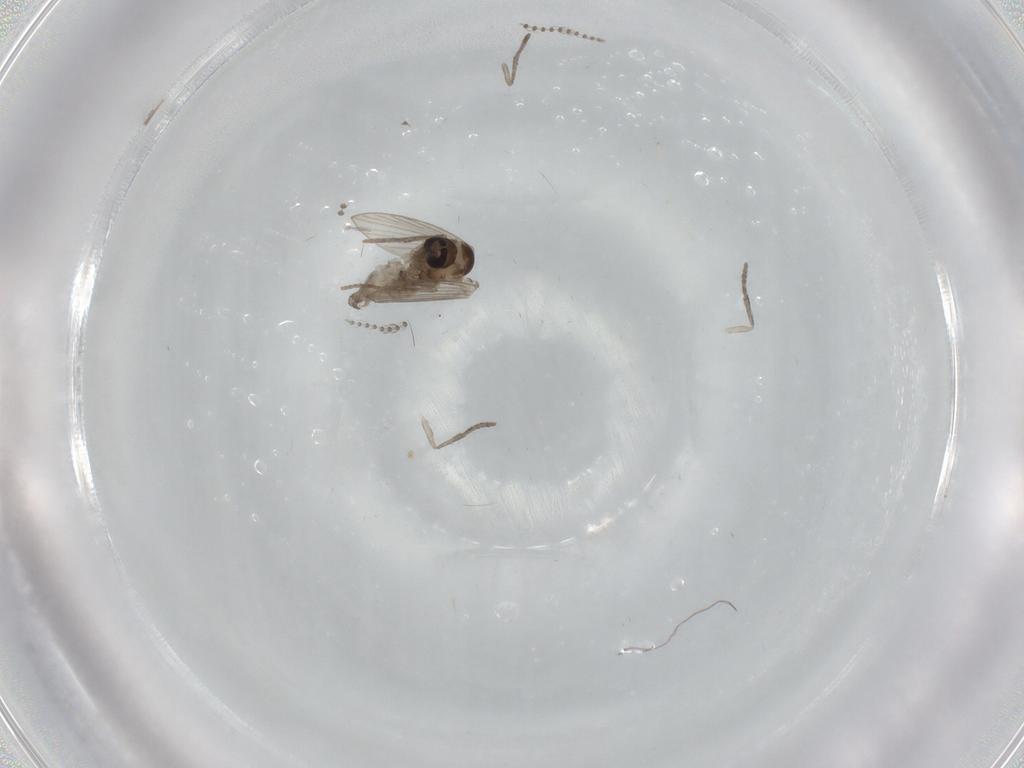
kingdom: Animalia
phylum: Arthropoda
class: Insecta
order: Diptera
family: Psychodidae
